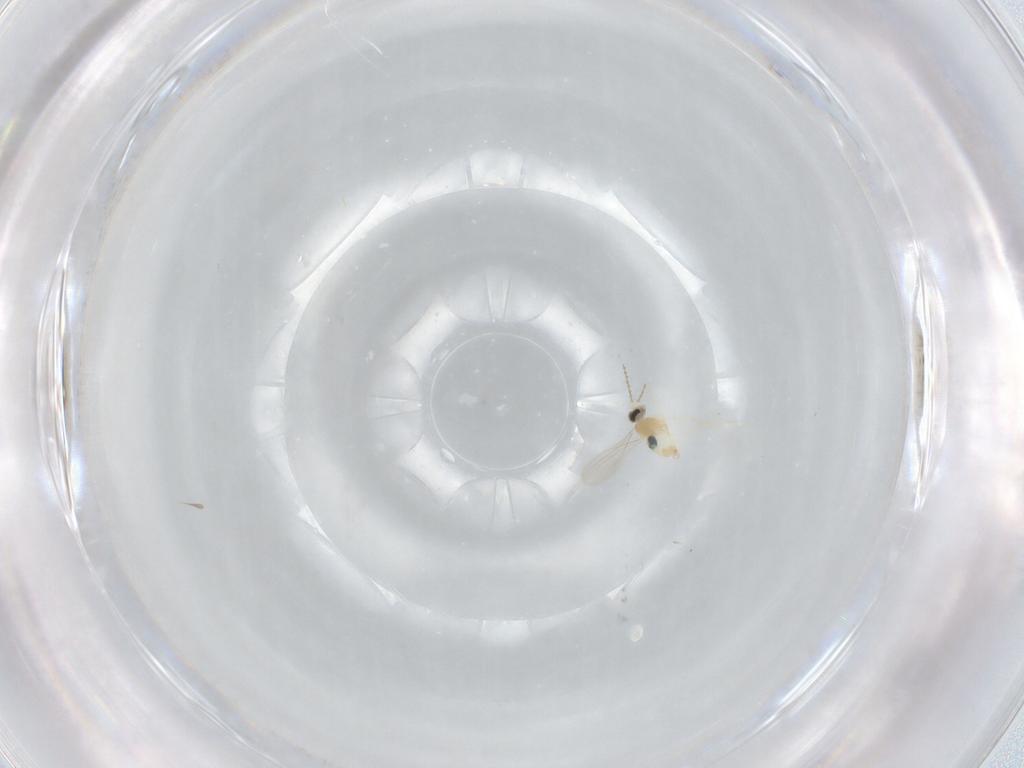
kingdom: Animalia
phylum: Arthropoda
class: Insecta
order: Diptera
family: Cecidomyiidae
